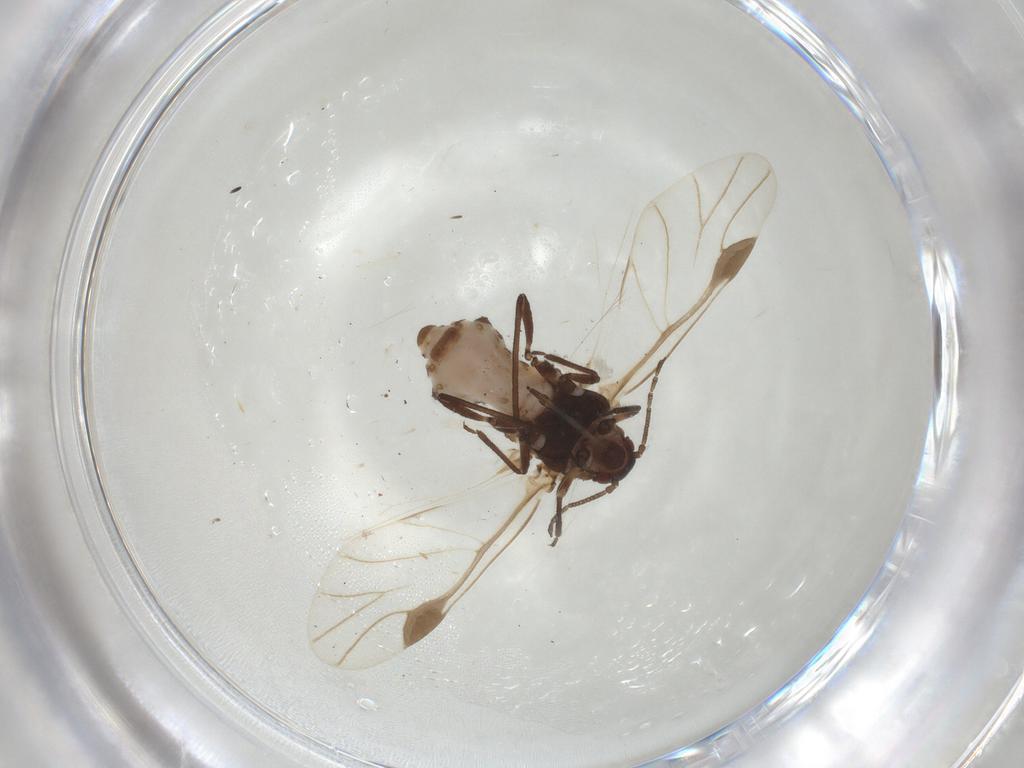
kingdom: Animalia
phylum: Arthropoda
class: Insecta
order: Hemiptera
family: Aphididae
